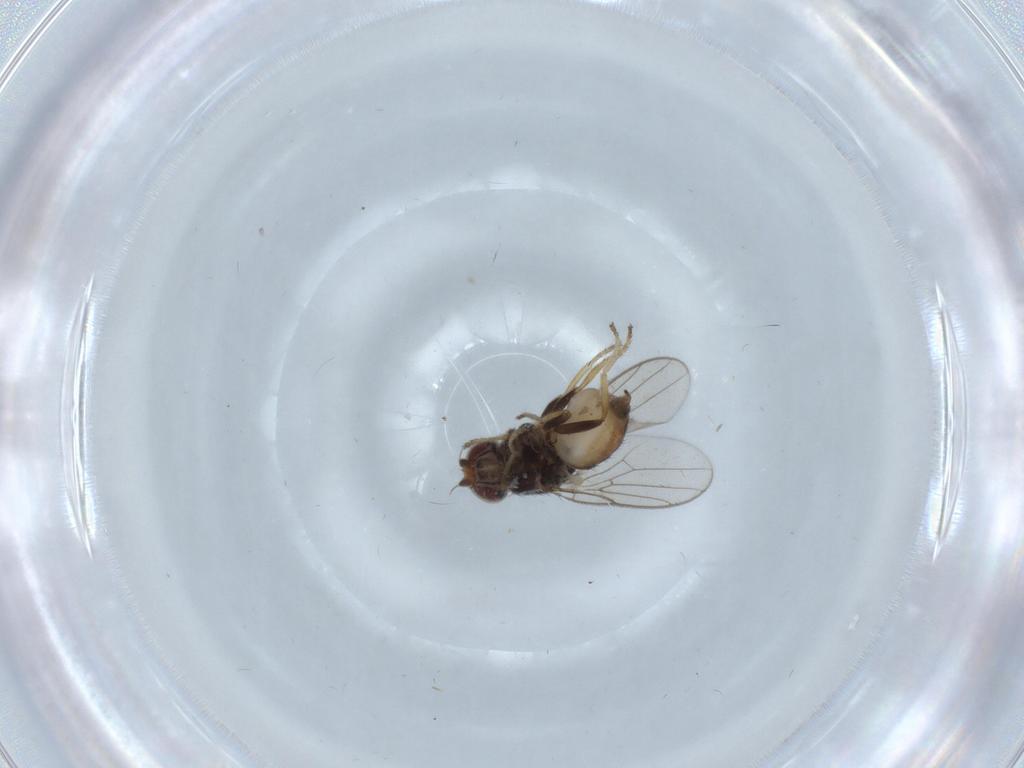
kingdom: Animalia
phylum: Arthropoda
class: Insecta
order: Diptera
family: Chloropidae
